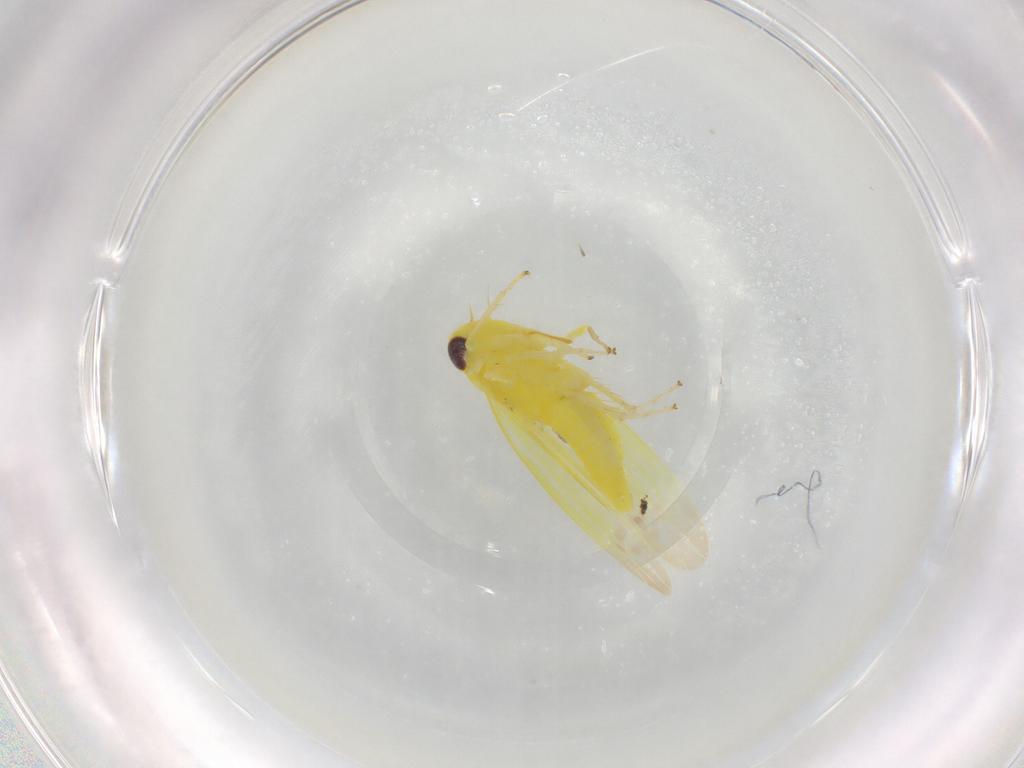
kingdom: Animalia
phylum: Arthropoda
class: Insecta
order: Hemiptera
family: Cicadellidae
